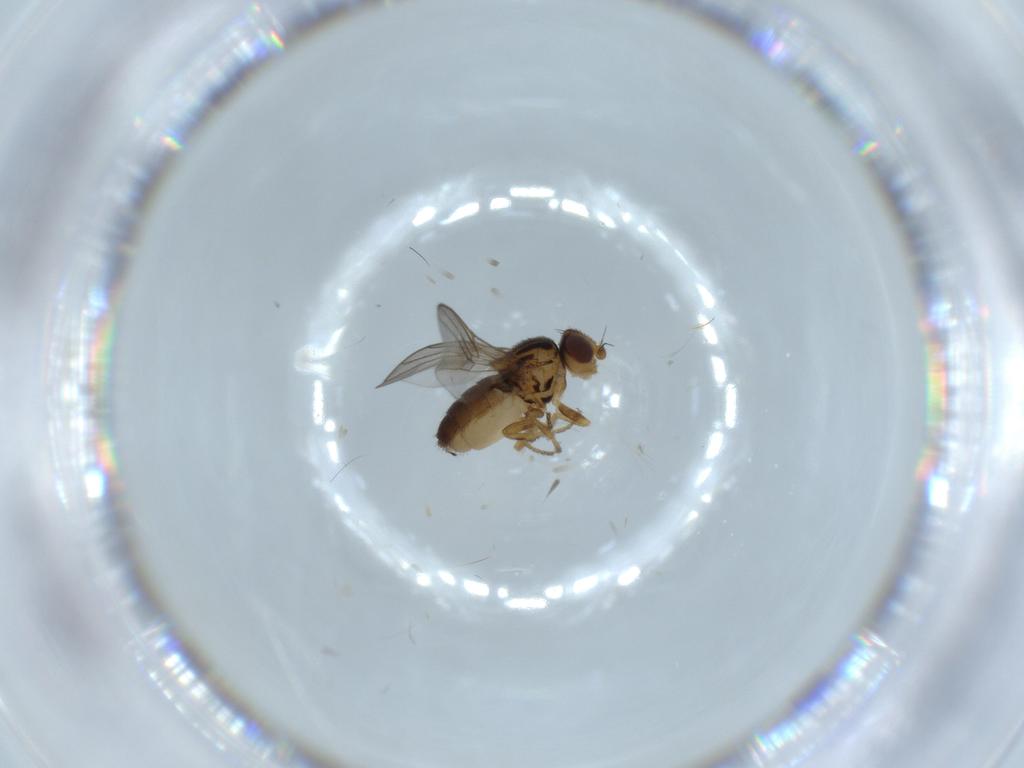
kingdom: Animalia
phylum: Arthropoda
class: Insecta
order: Diptera
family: Chloropidae
